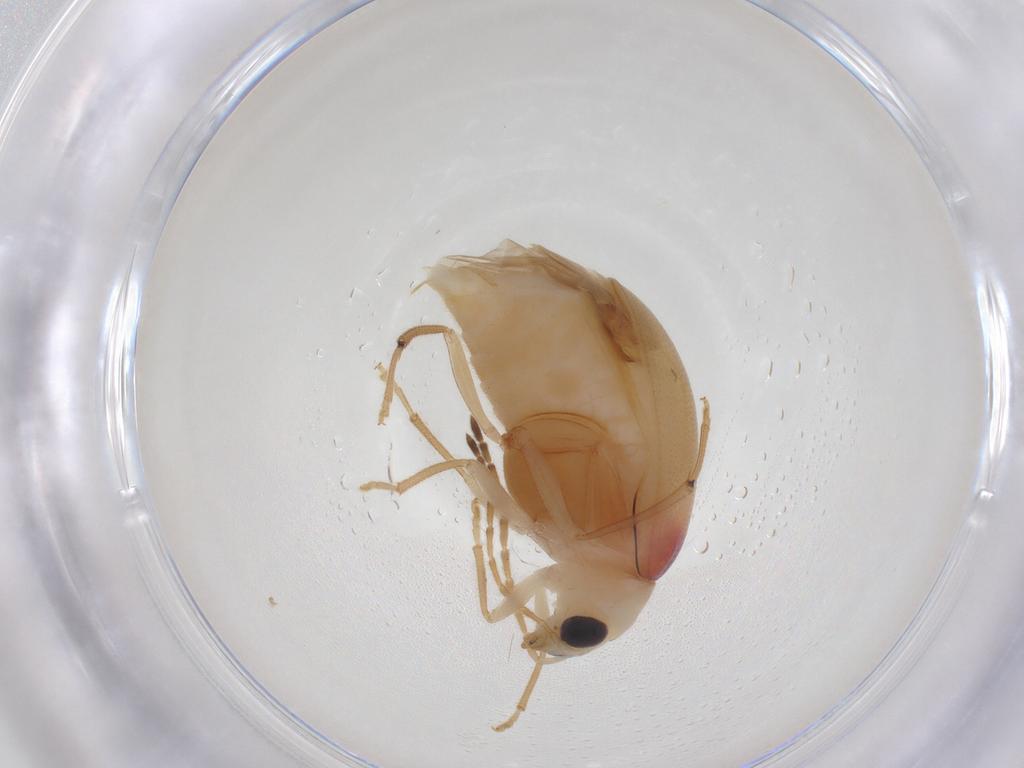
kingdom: Animalia
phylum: Arthropoda
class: Insecta
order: Coleoptera
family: Chrysomelidae
